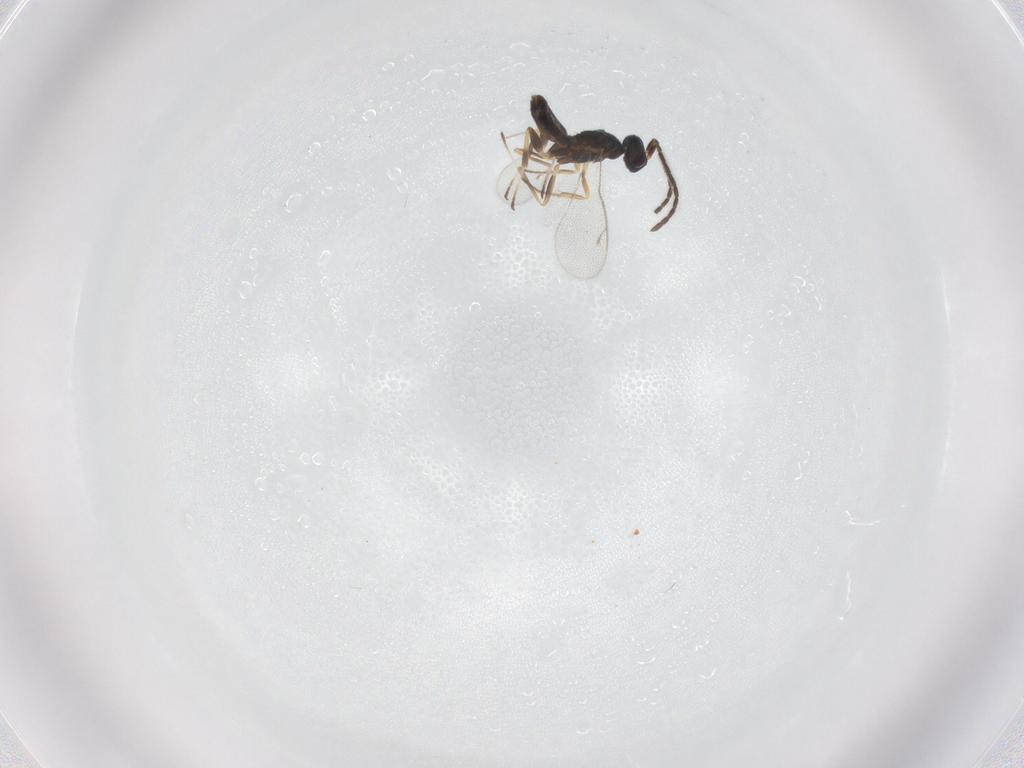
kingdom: Animalia
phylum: Arthropoda
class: Insecta
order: Hymenoptera
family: Eupelmidae
